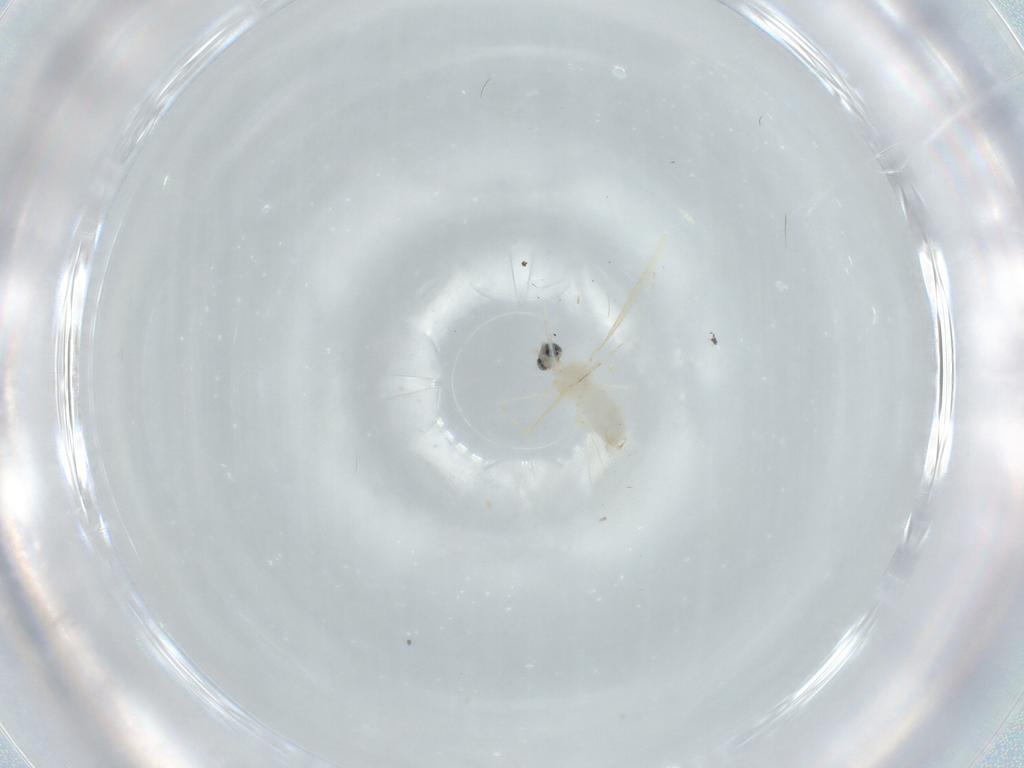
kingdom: Animalia
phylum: Arthropoda
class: Insecta
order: Diptera
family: Cecidomyiidae
